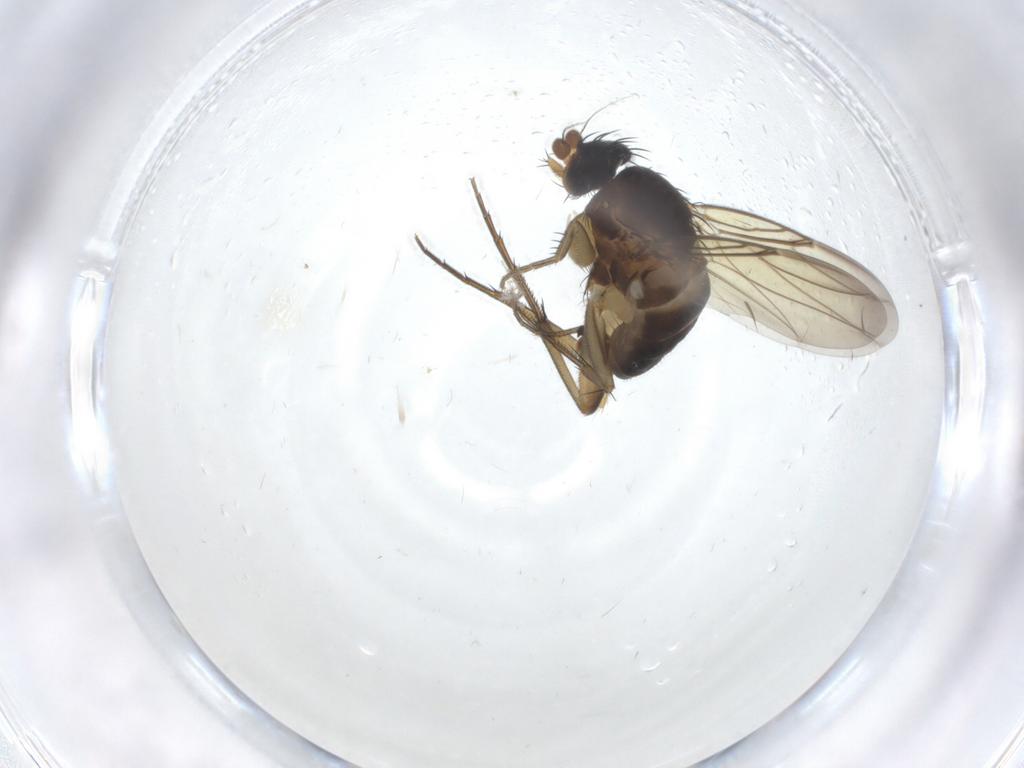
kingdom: Animalia
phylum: Arthropoda
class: Insecta
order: Diptera
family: Phoridae
